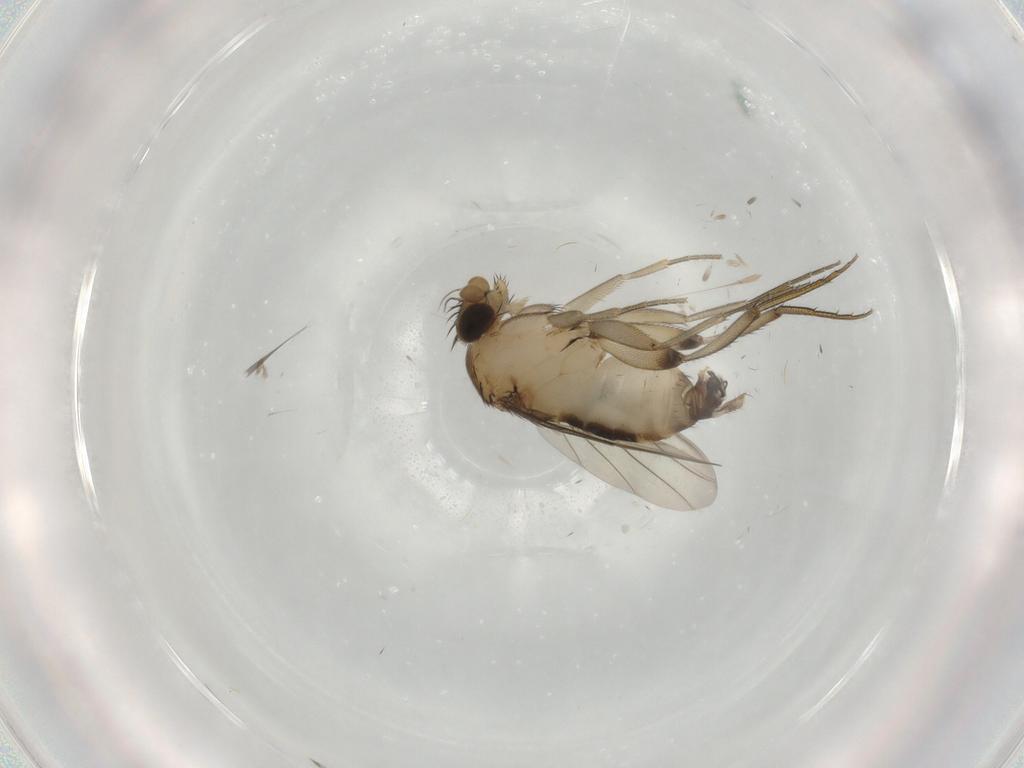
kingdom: Animalia
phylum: Arthropoda
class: Insecta
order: Diptera
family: Phoridae
